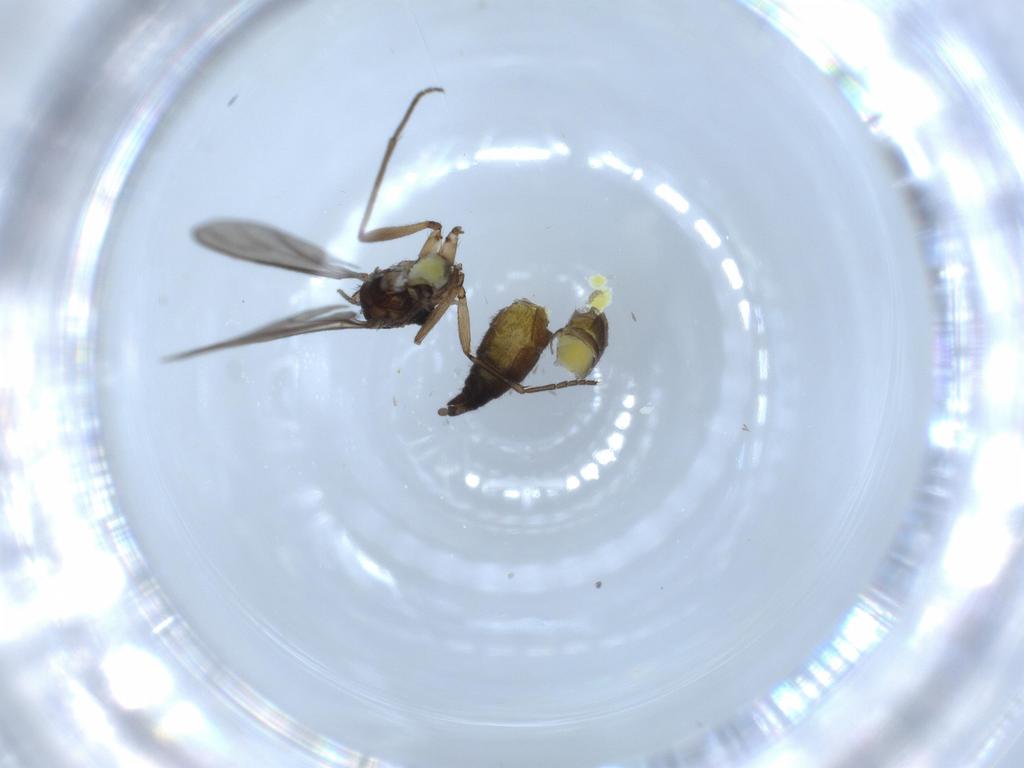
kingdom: Animalia
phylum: Arthropoda
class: Insecta
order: Diptera
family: Sciaridae
